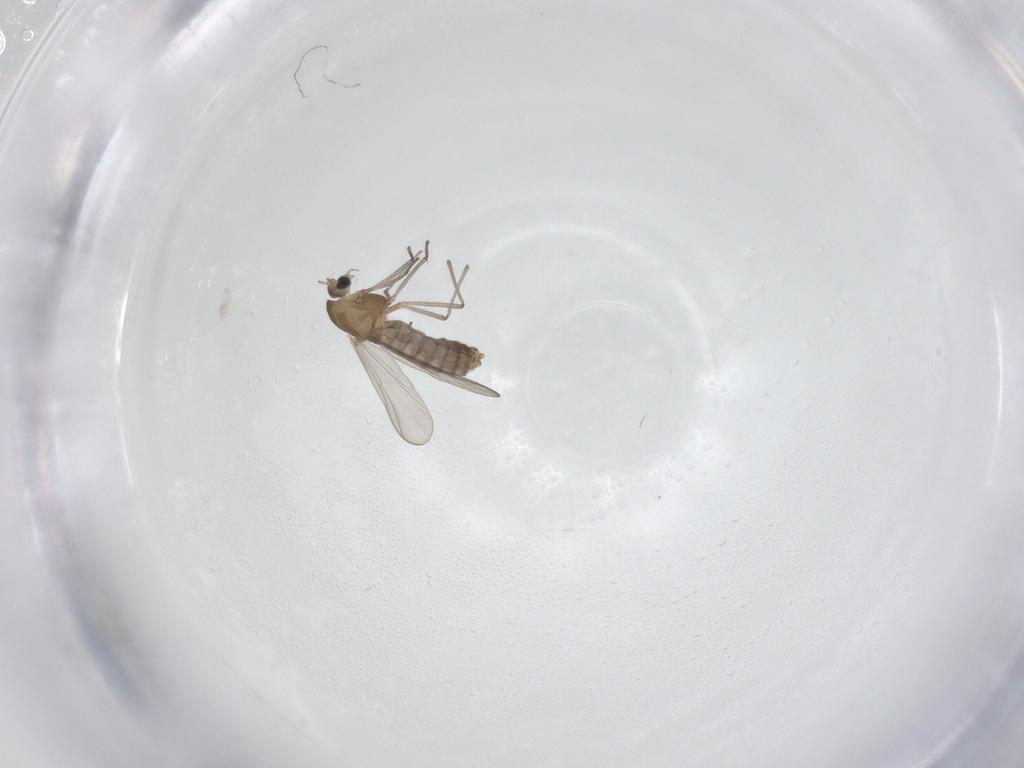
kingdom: Animalia
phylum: Arthropoda
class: Insecta
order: Diptera
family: Chironomidae
